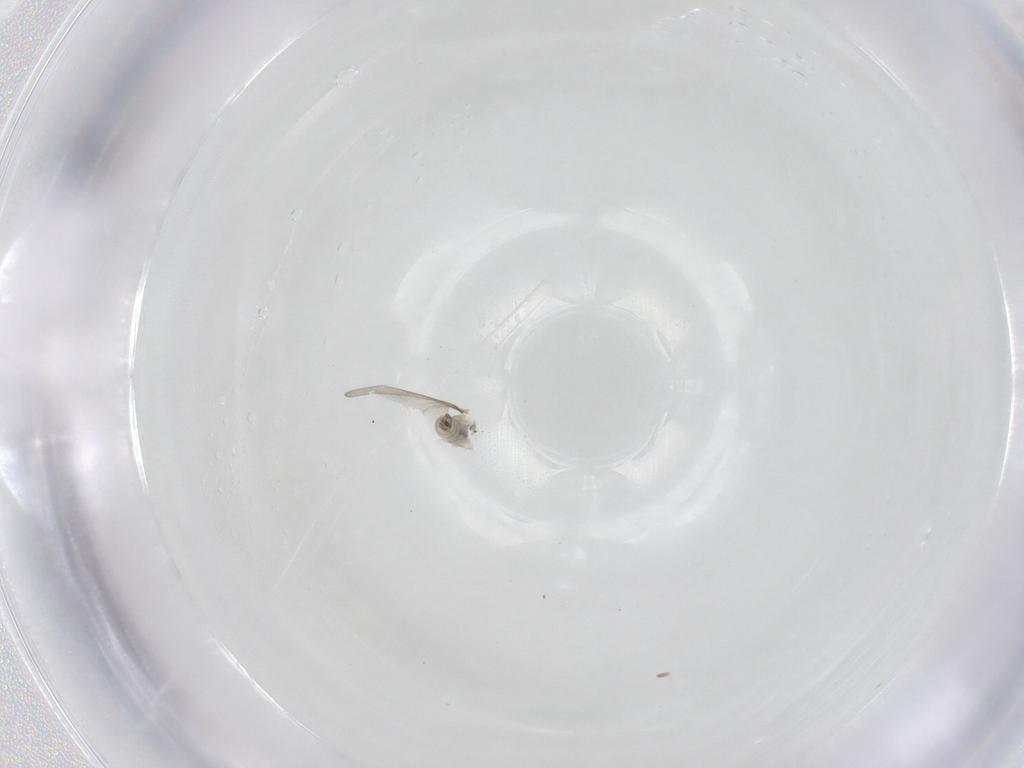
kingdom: Animalia
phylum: Arthropoda
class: Insecta
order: Diptera
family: Cecidomyiidae
